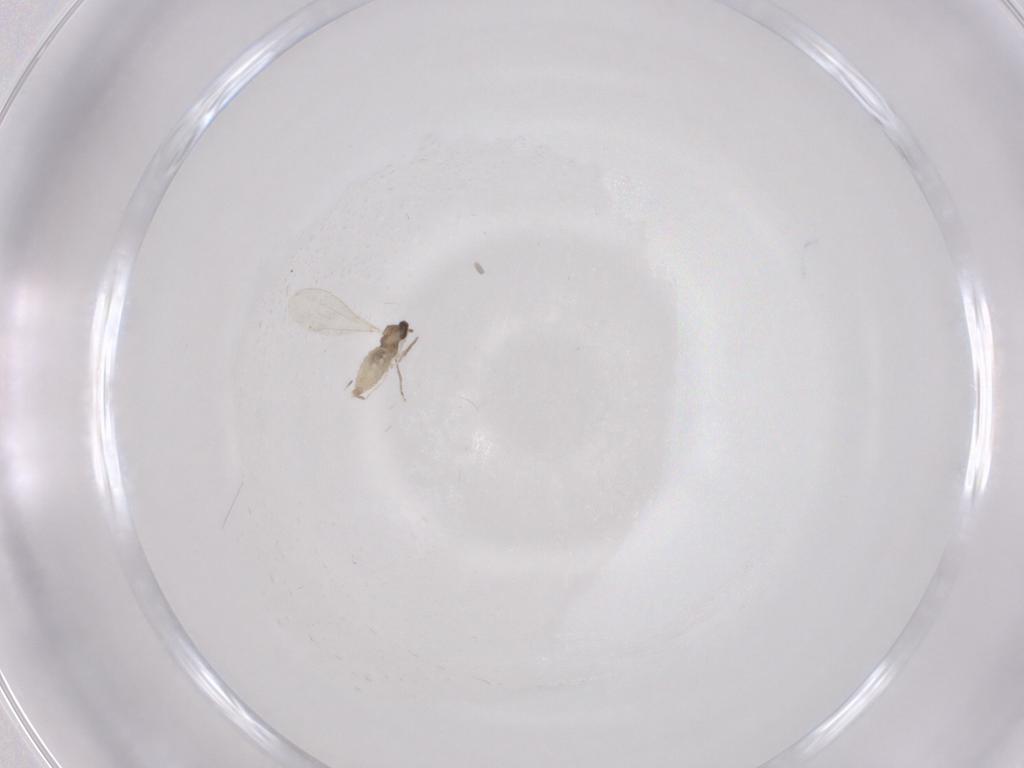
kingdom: Animalia
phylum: Arthropoda
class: Insecta
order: Diptera
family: Cecidomyiidae
